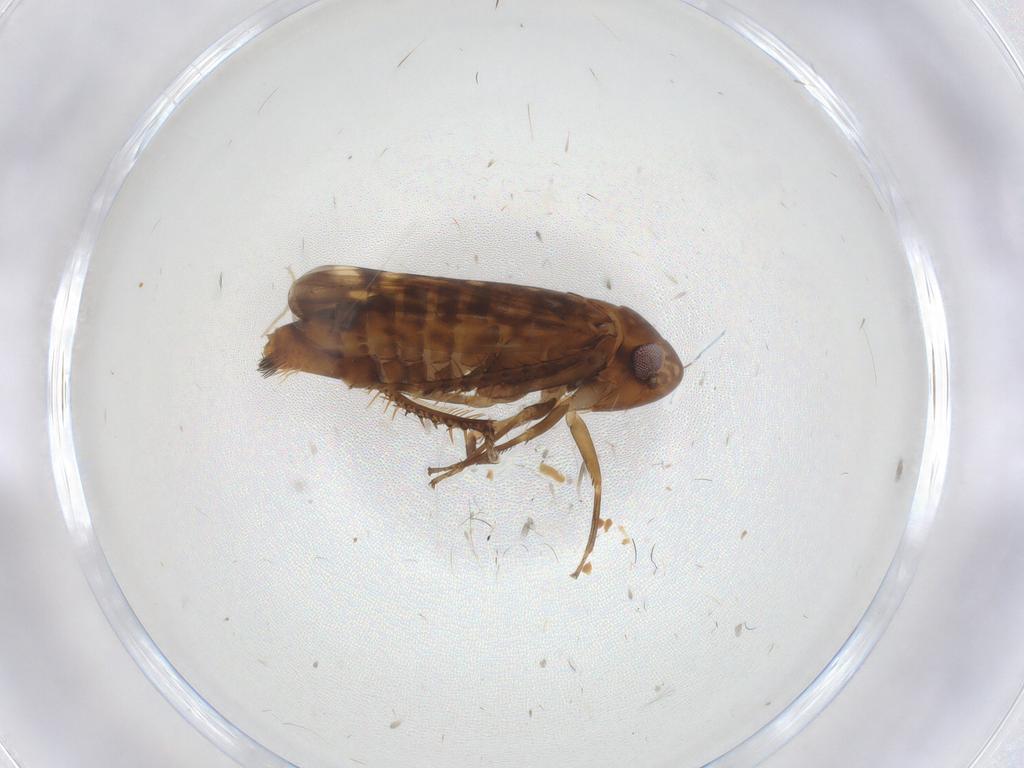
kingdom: Animalia
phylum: Arthropoda
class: Insecta
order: Hemiptera
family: Cicadellidae
